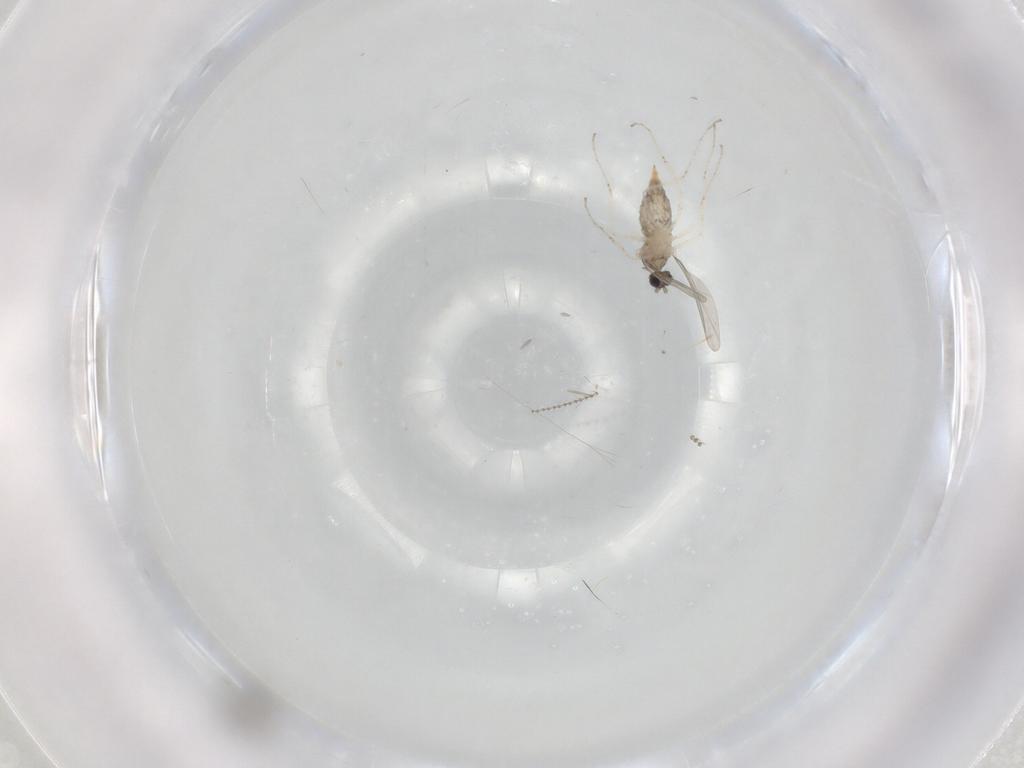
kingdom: Animalia
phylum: Arthropoda
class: Insecta
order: Diptera
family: Cecidomyiidae
